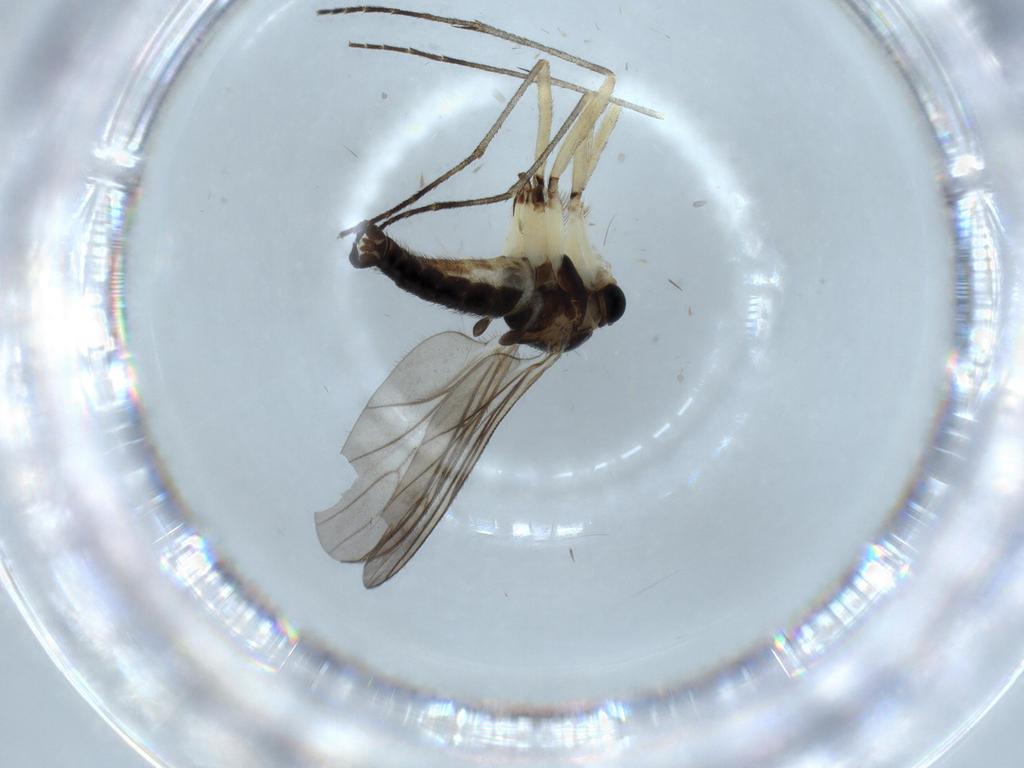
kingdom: Animalia
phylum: Arthropoda
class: Insecta
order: Diptera
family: Sciaridae
